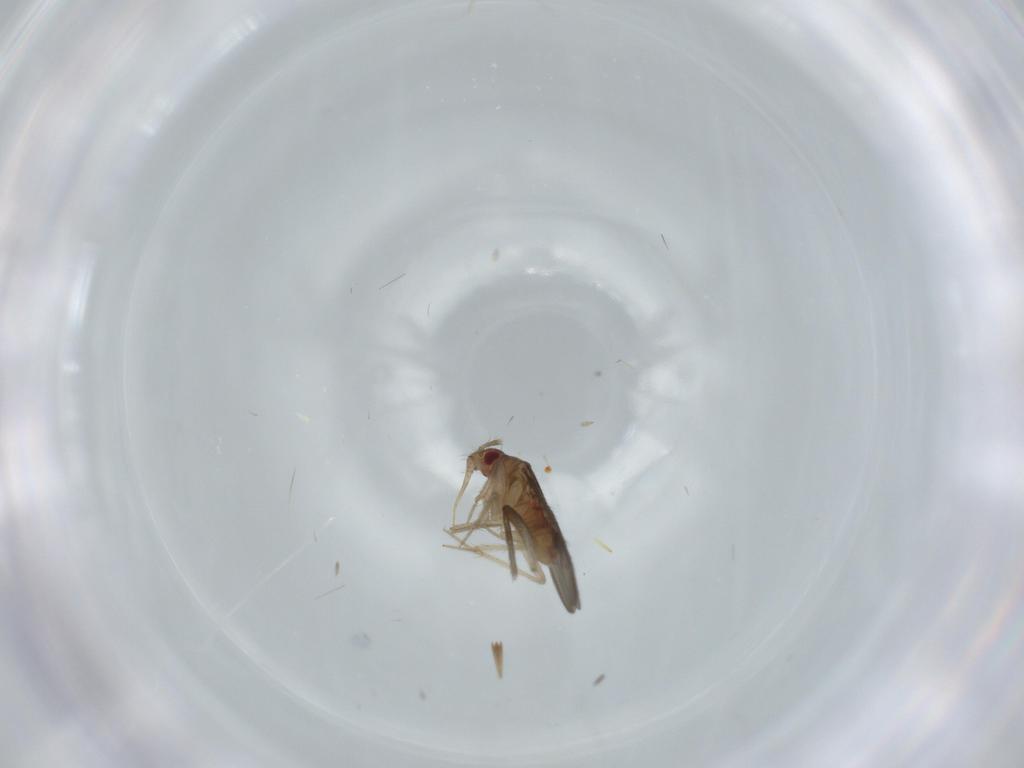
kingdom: Animalia
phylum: Arthropoda
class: Insecta
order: Hemiptera
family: Ceratocombidae
